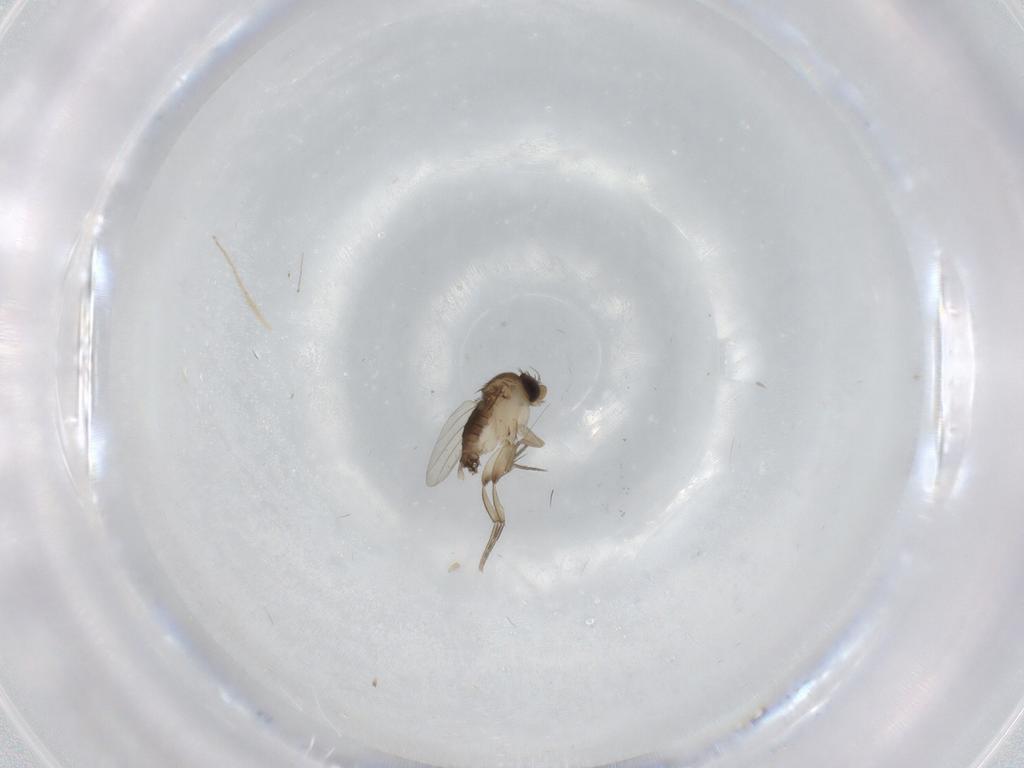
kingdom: Animalia
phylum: Arthropoda
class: Insecta
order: Diptera
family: Phoridae
